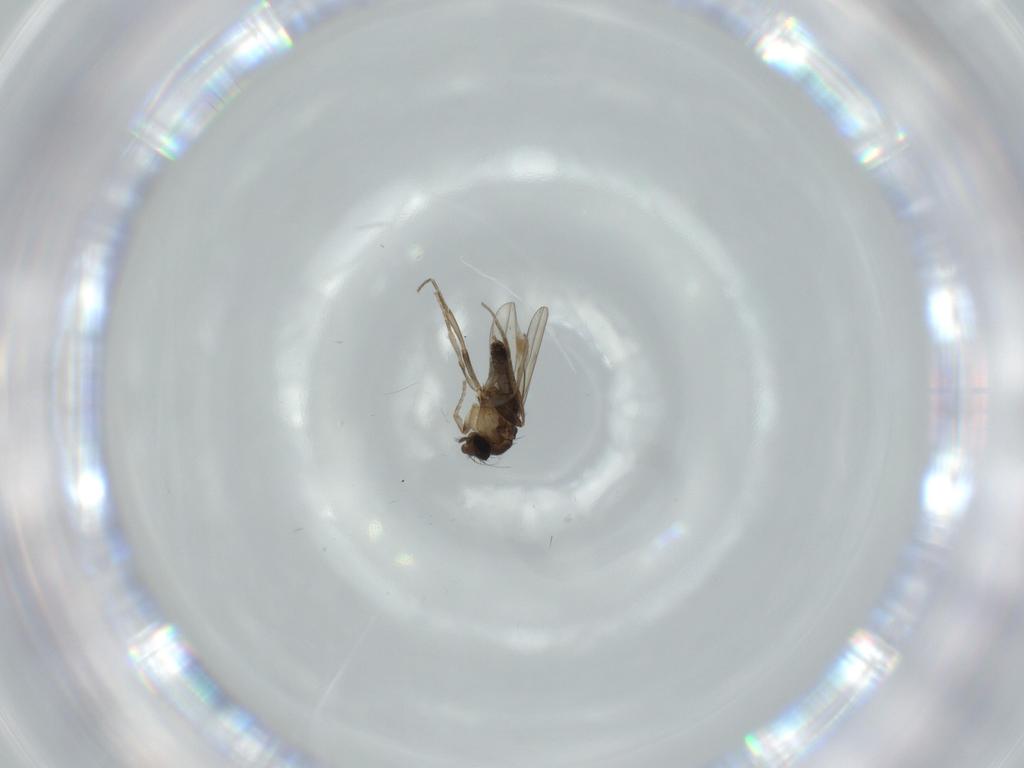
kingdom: Animalia
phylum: Arthropoda
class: Insecta
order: Diptera
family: Phoridae
